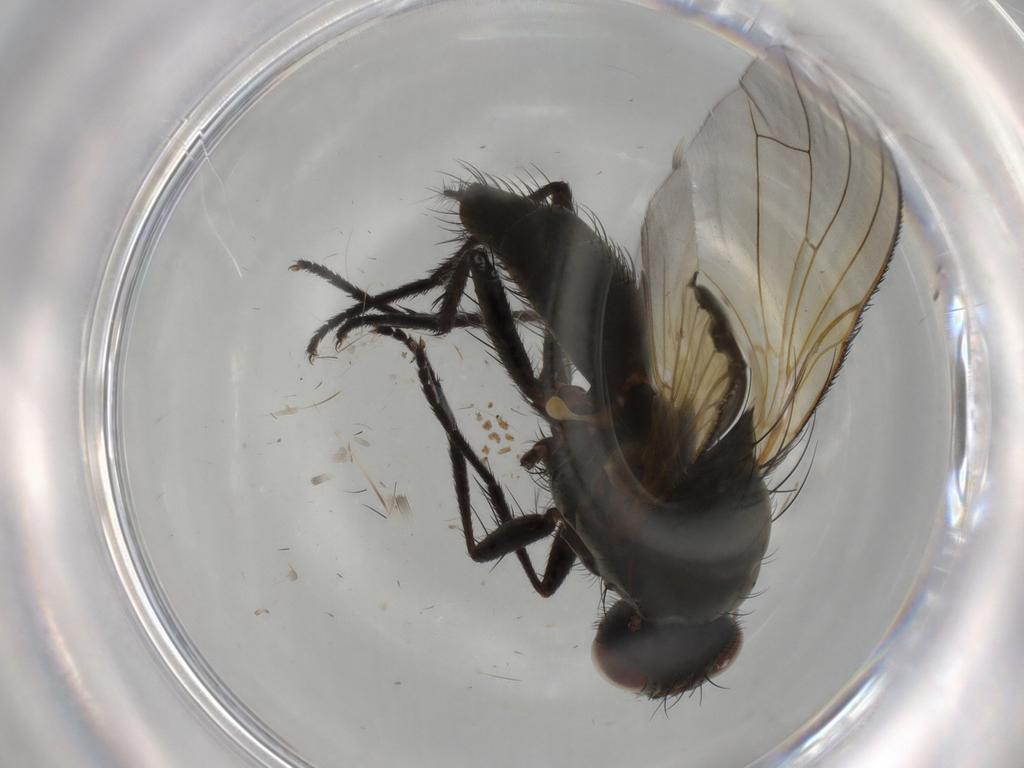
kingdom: Animalia
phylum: Arthropoda
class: Insecta
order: Diptera
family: Anthomyiidae
